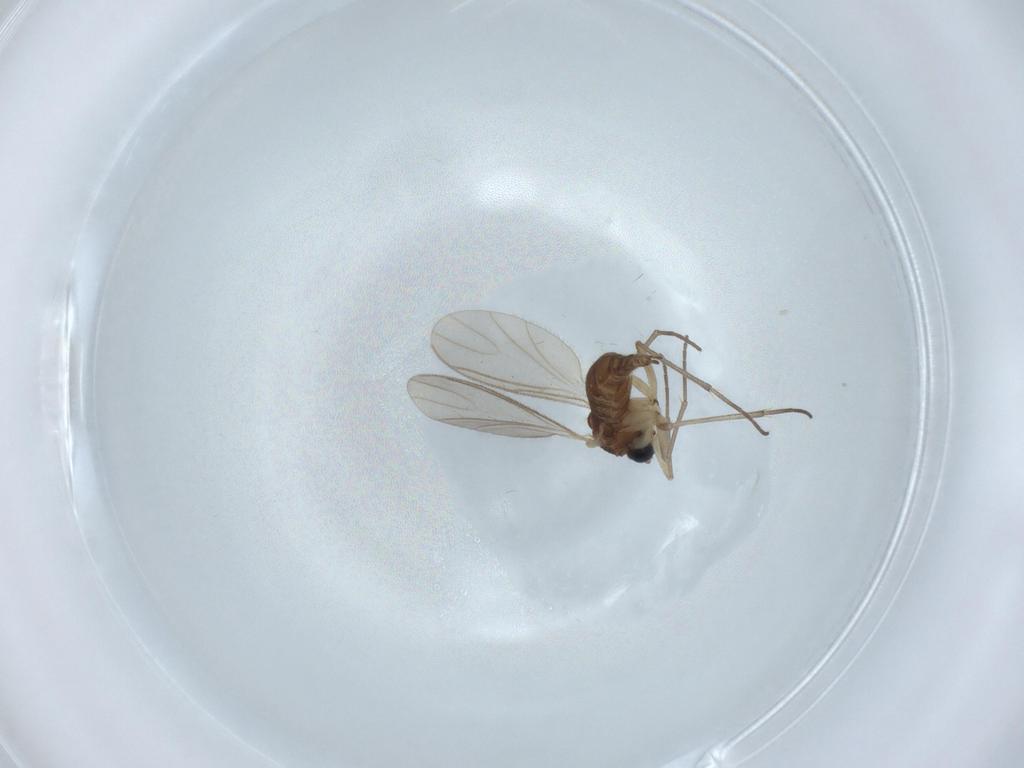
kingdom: Animalia
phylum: Arthropoda
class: Insecta
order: Diptera
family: Sciaridae
